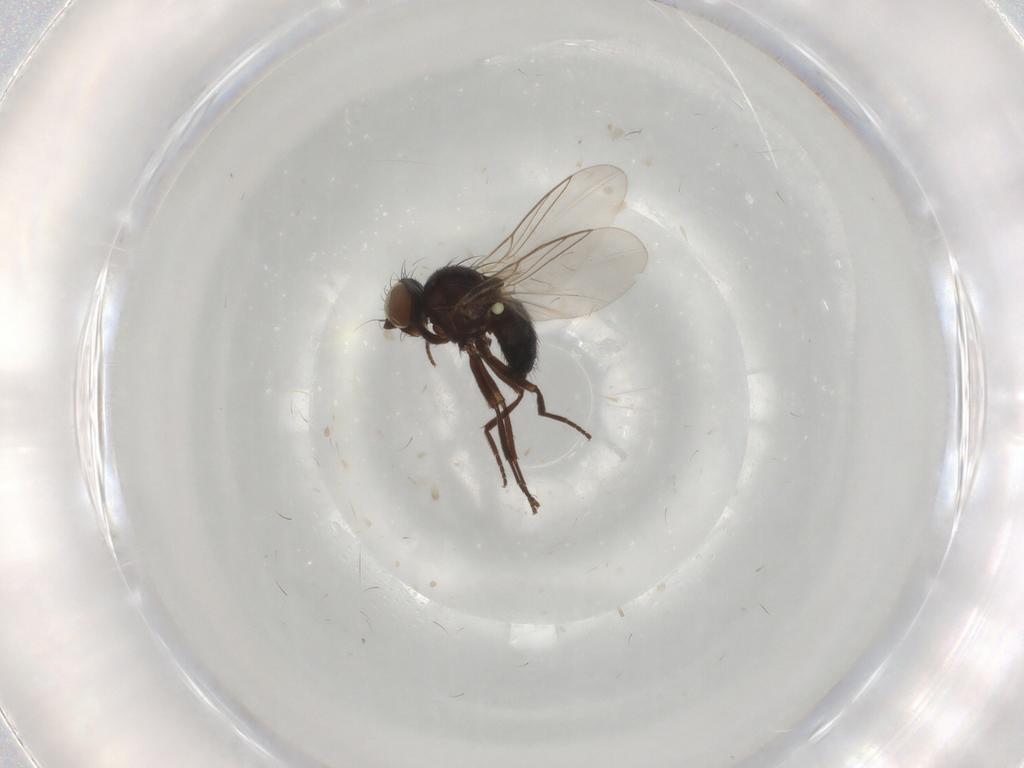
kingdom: Animalia
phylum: Arthropoda
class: Insecta
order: Diptera
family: Agromyzidae
